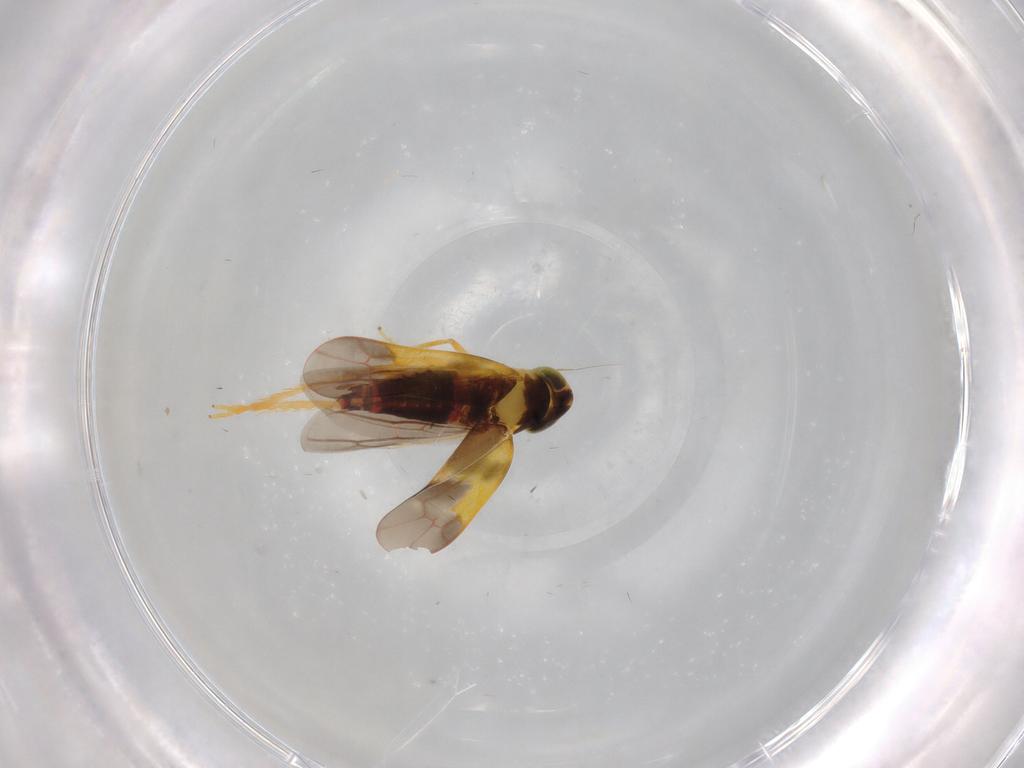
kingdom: Animalia
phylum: Arthropoda
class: Insecta
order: Hemiptera
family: Cicadellidae
